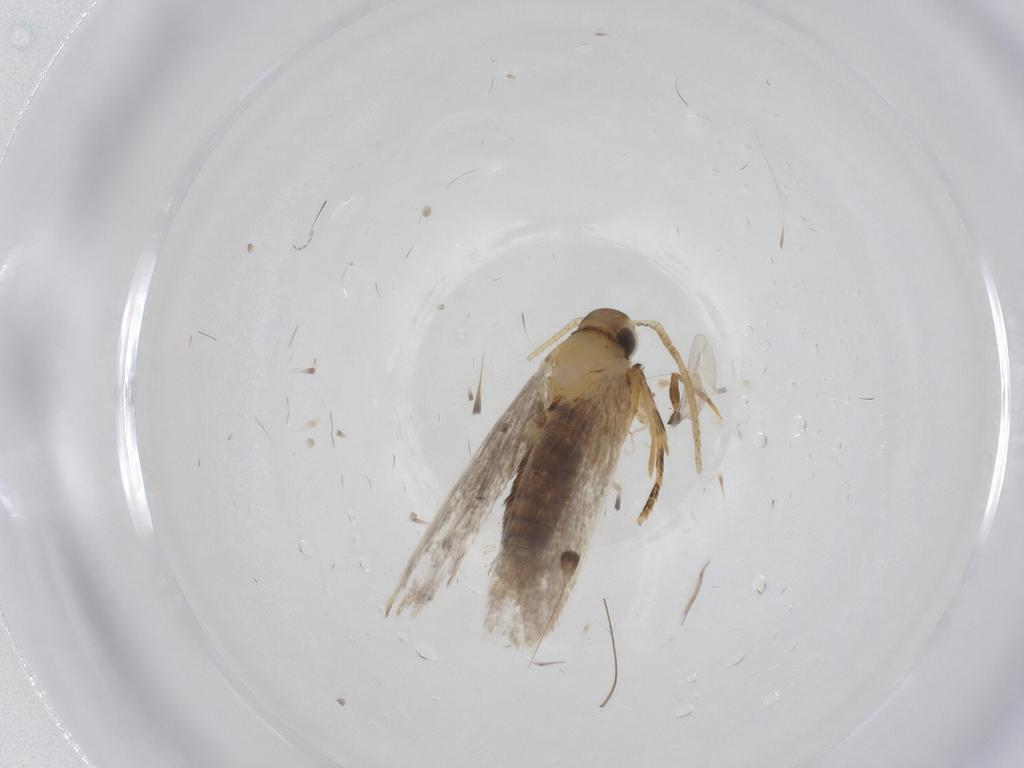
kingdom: Animalia
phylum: Arthropoda
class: Insecta
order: Lepidoptera
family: Oecophoridae
